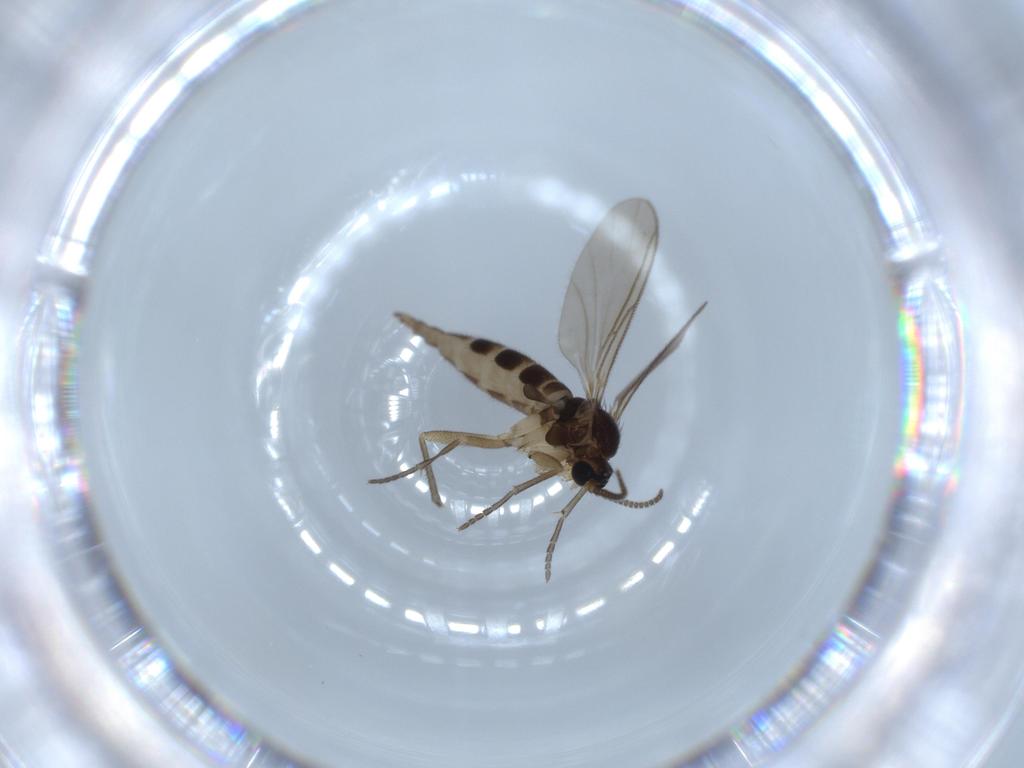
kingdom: Animalia
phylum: Arthropoda
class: Insecta
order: Diptera
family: Sciaridae
